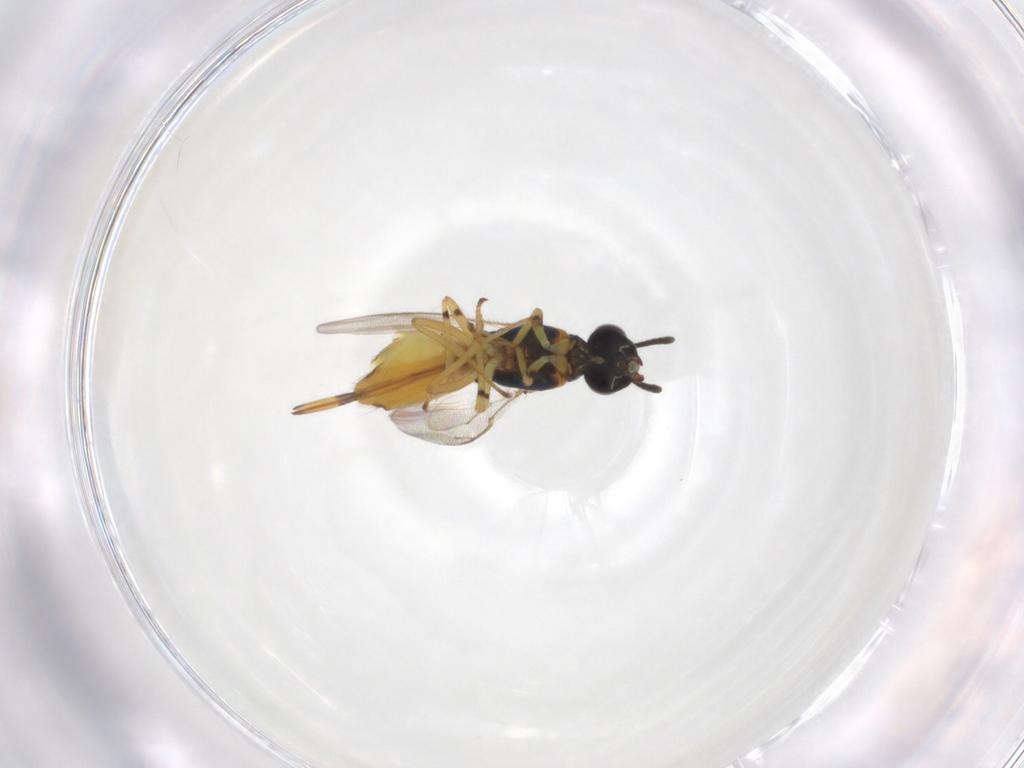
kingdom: Animalia
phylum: Arthropoda
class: Insecta
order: Hymenoptera
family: Eupelmidae
